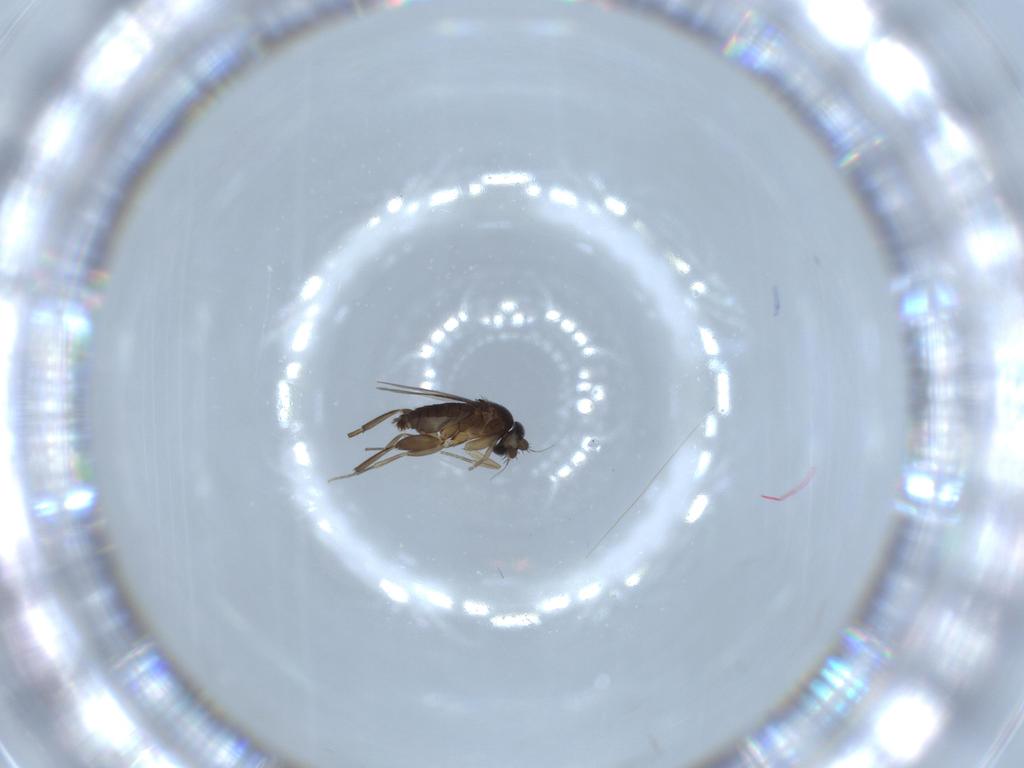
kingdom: Animalia
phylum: Arthropoda
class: Insecta
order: Diptera
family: Phoridae
